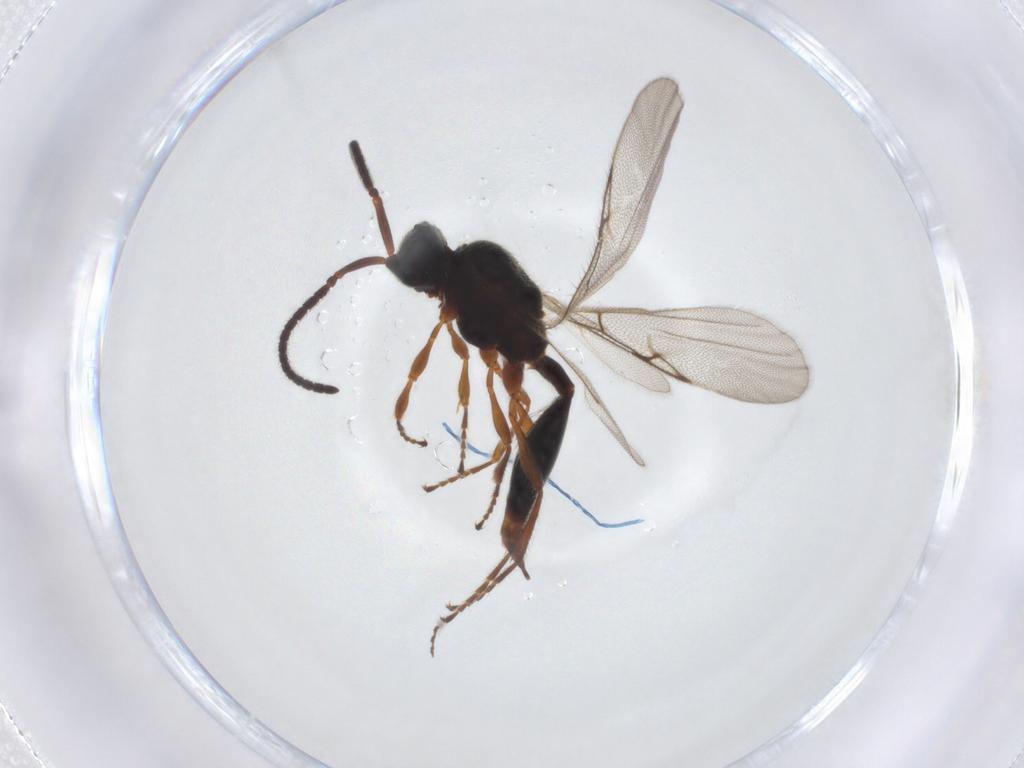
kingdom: Animalia
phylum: Arthropoda
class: Insecta
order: Hymenoptera
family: Diapriidae
